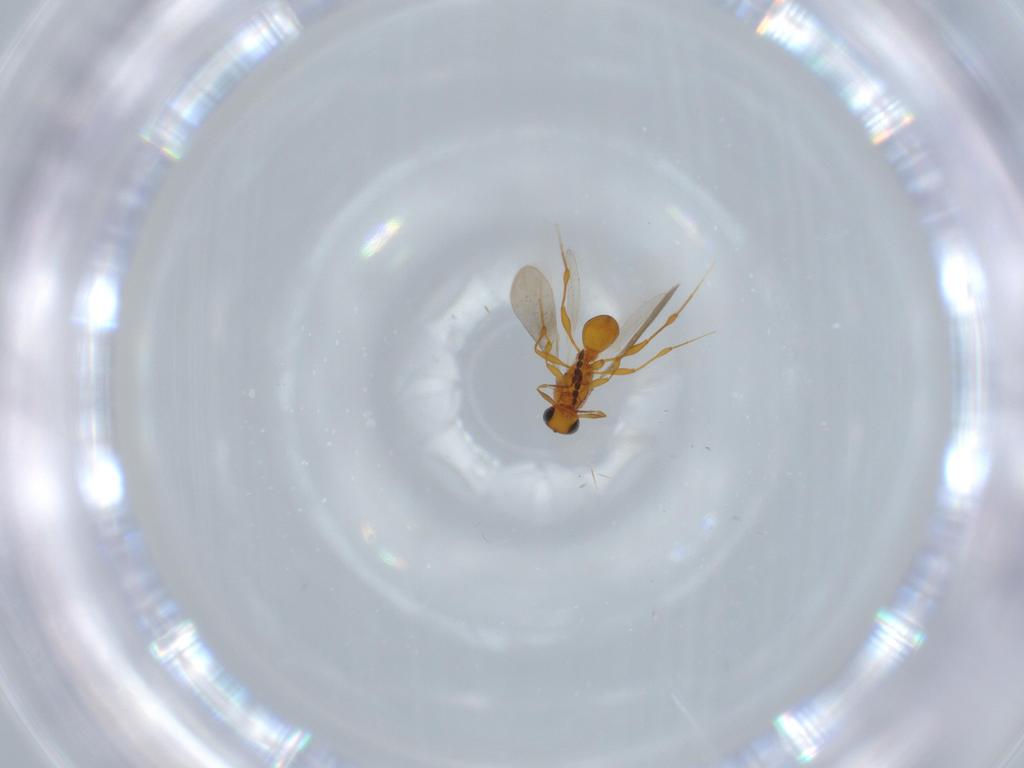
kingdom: Animalia
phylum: Arthropoda
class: Insecta
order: Hymenoptera
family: Platygastridae
